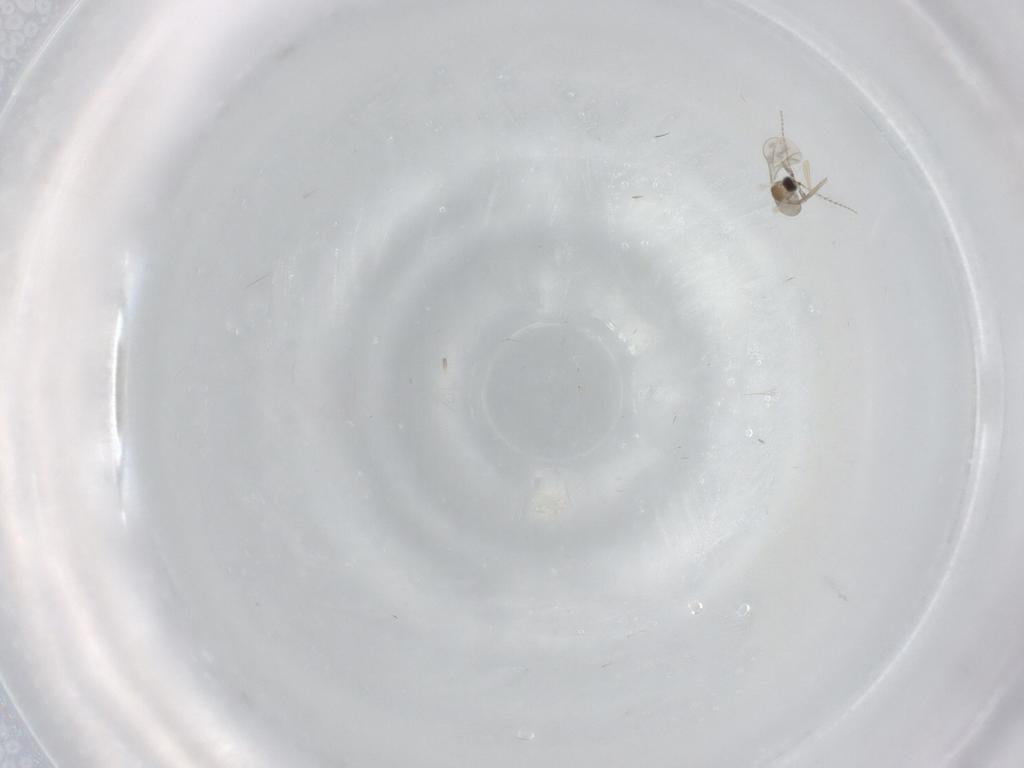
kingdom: Animalia
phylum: Arthropoda
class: Insecta
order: Diptera
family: Cecidomyiidae
